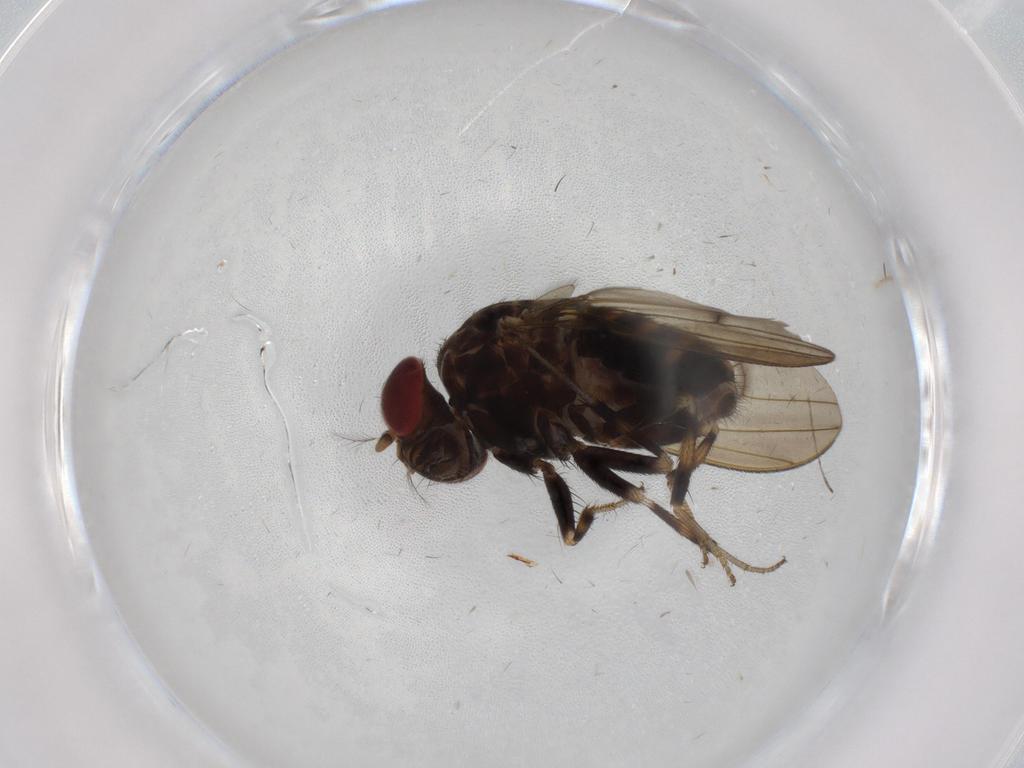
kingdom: Animalia
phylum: Arthropoda
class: Insecta
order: Diptera
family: Drosophilidae
